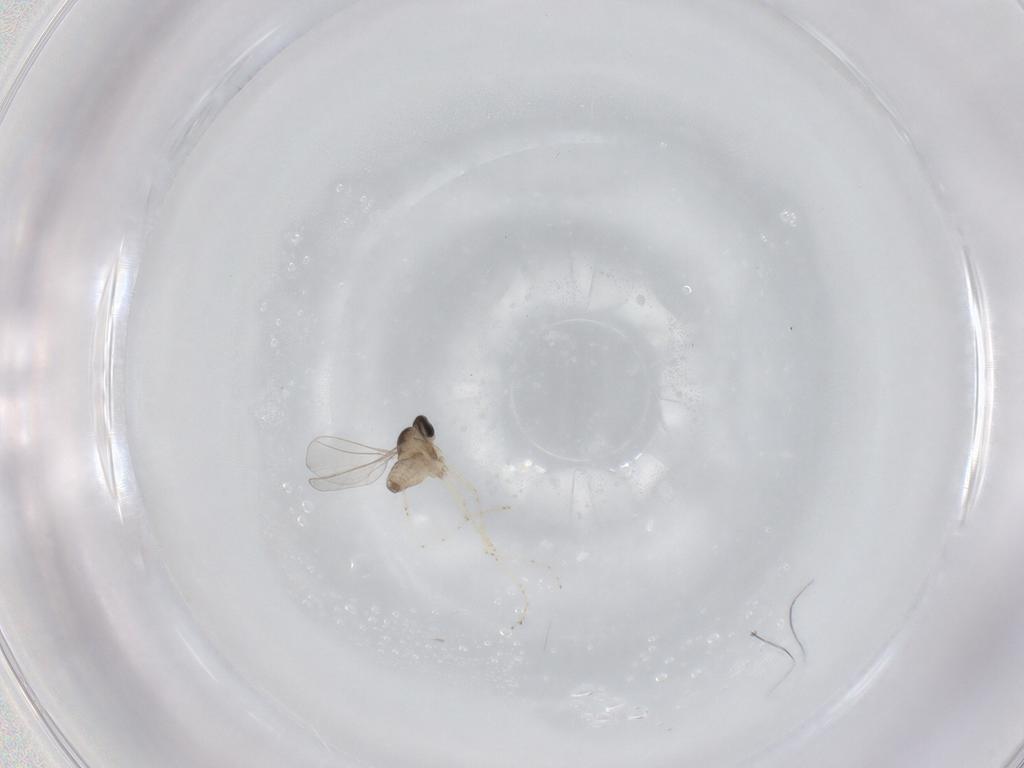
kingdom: Animalia
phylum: Arthropoda
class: Insecta
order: Diptera
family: Cecidomyiidae
